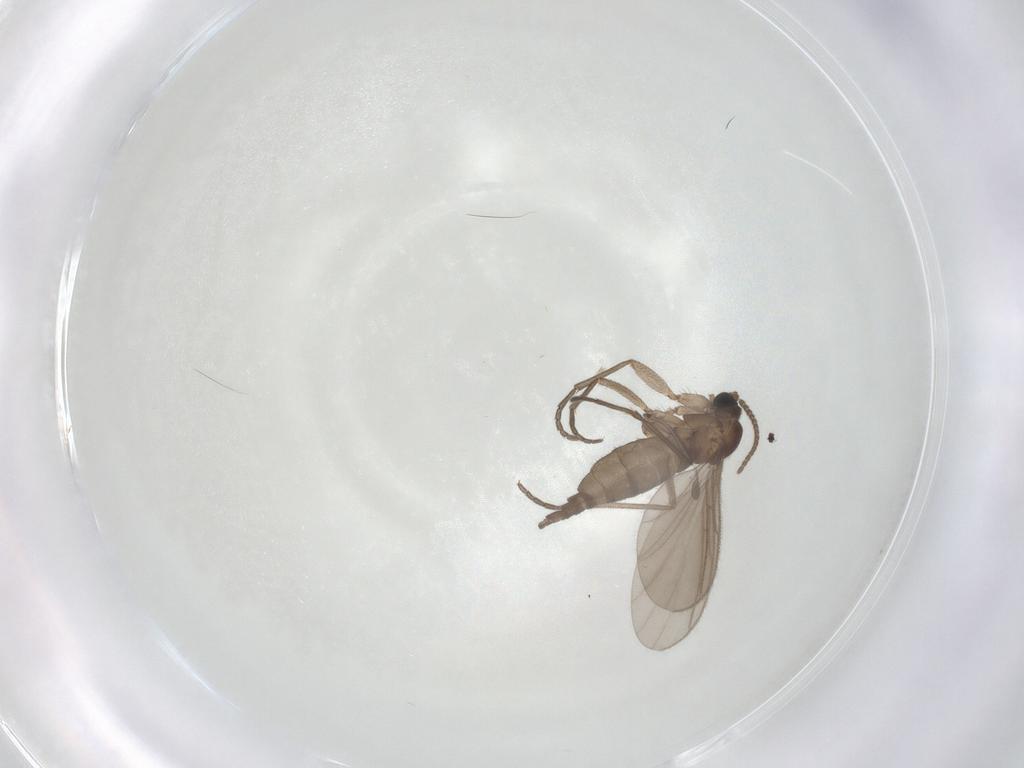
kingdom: Animalia
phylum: Arthropoda
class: Insecta
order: Diptera
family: Sciaridae
